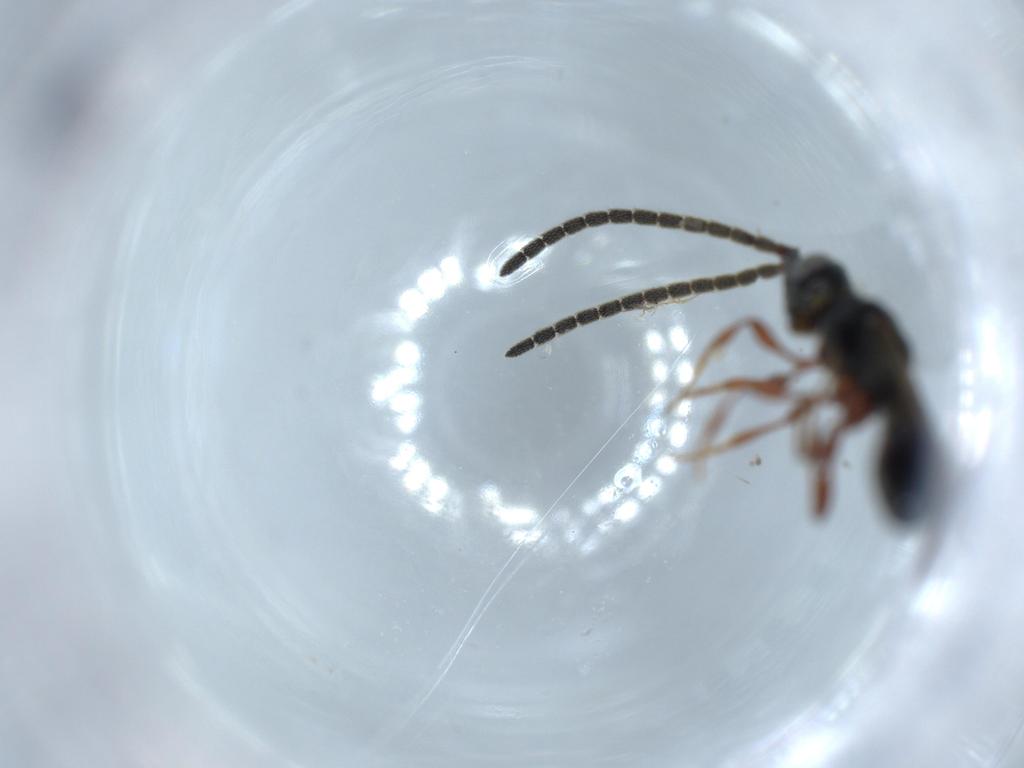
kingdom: Animalia
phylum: Arthropoda
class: Insecta
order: Hymenoptera
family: Diapriidae
